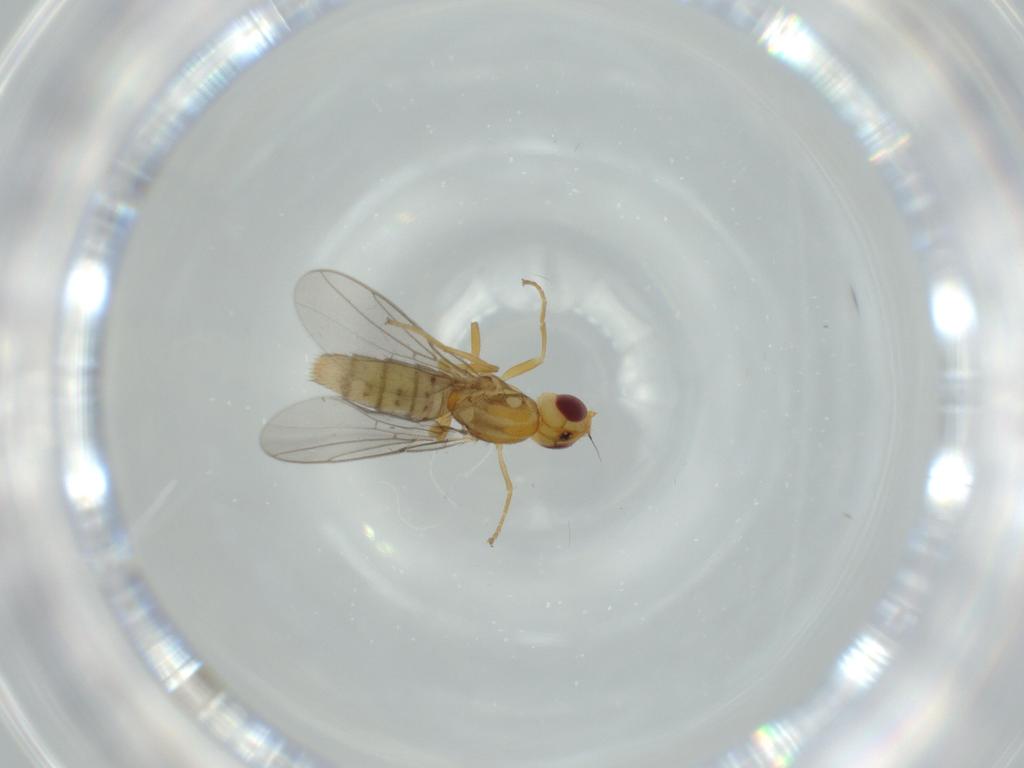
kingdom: Animalia
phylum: Arthropoda
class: Insecta
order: Diptera
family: Chloropidae
